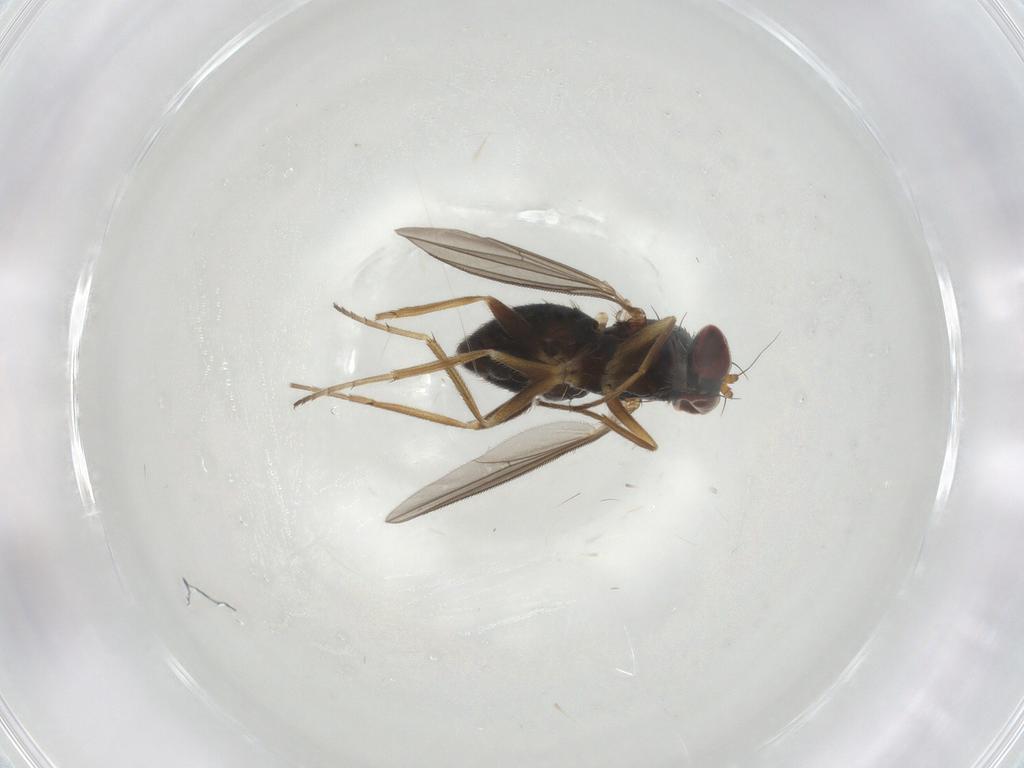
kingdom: Animalia
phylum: Arthropoda
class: Insecta
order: Diptera
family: Dolichopodidae
